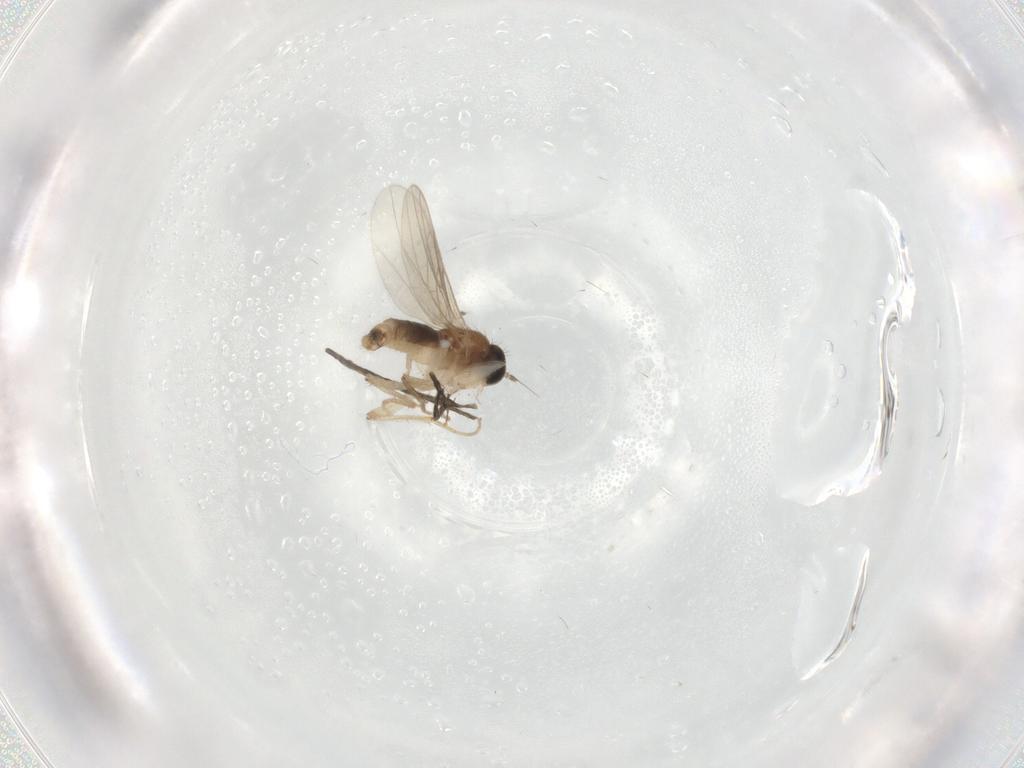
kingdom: Animalia
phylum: Arthropoda
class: Insecta
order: Diptera
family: Hybotidae
